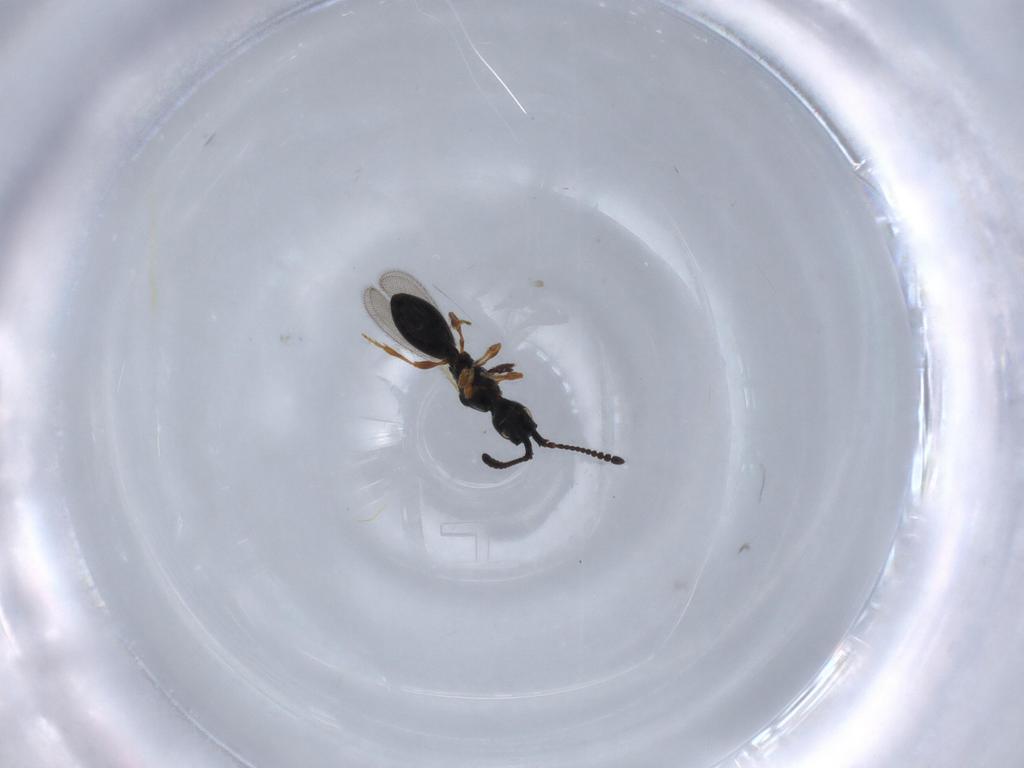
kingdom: Animalia
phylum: Arthropoda
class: Insecta
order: Hymenoptera
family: Diapriidae
